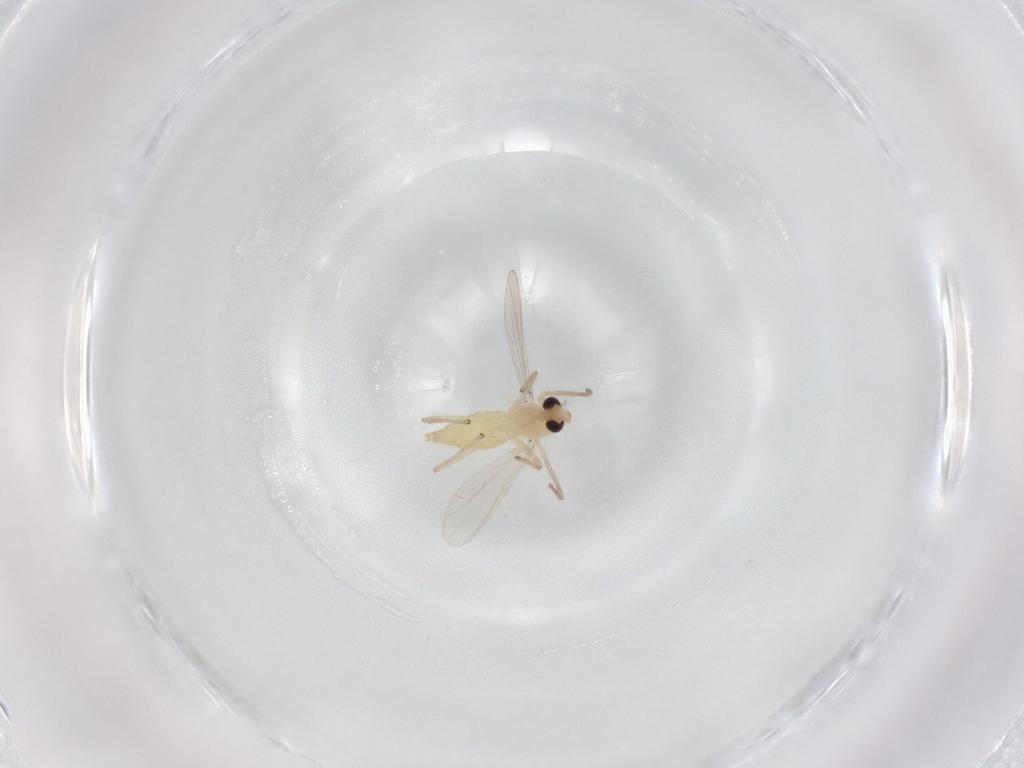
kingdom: Animalia
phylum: Arthropoda
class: Insecta
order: Diptera
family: Chironomidae
